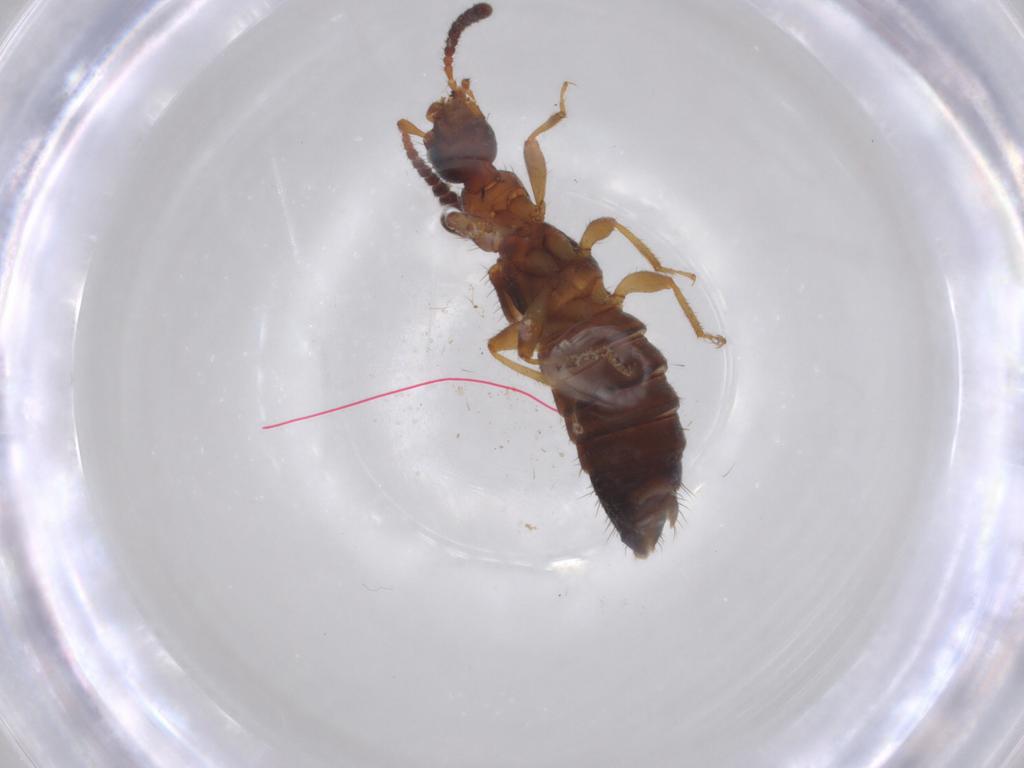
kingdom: Animalia
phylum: Arthropoda
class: Insecta
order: Coleoptera
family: Staphylinidae
